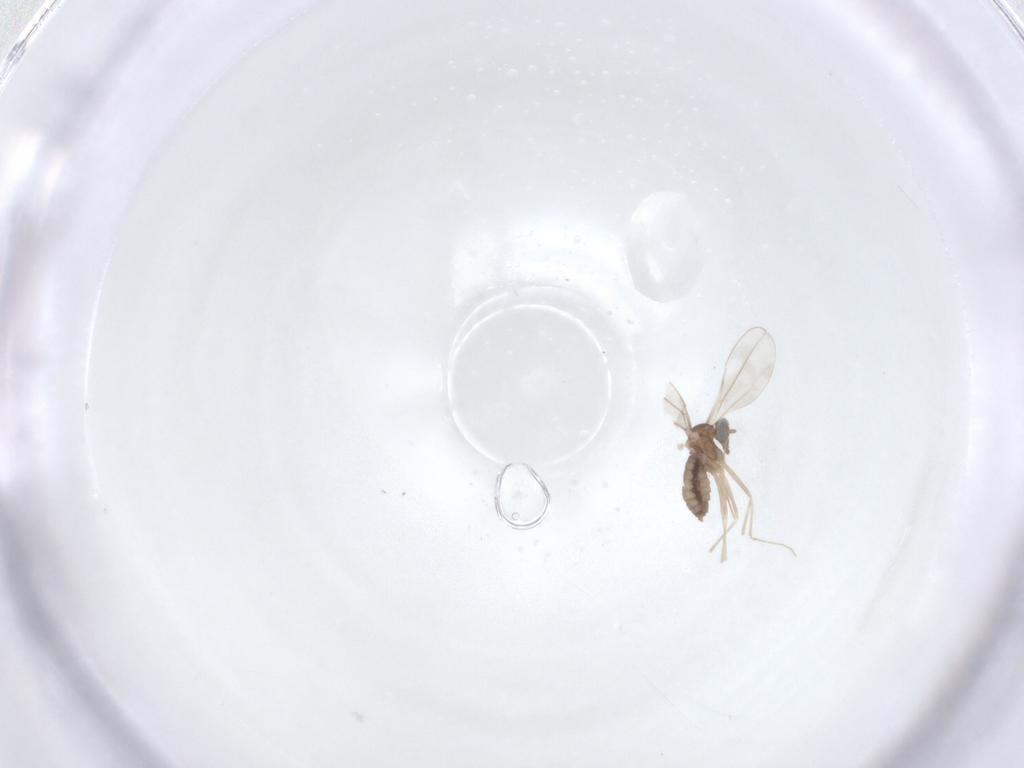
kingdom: Animalia
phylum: Arthropoda
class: Insecta
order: Diptera
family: Cecidomyiidae
